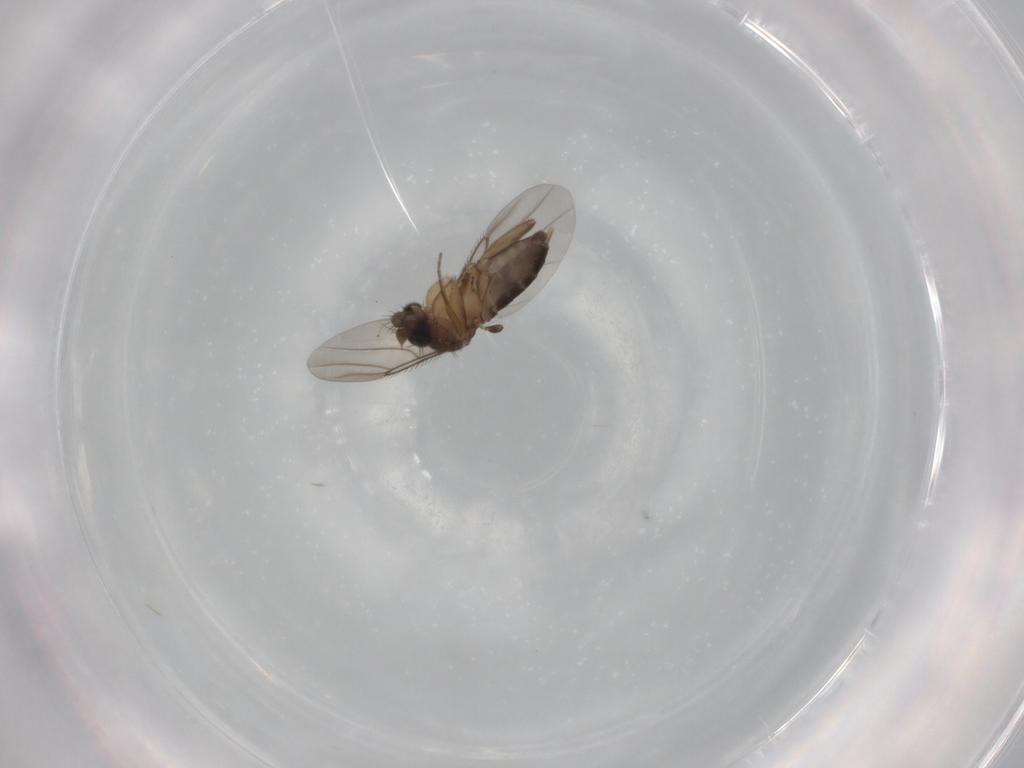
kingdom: Animalia
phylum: Arthropoda
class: Insecta
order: Diptera
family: Phoridae
